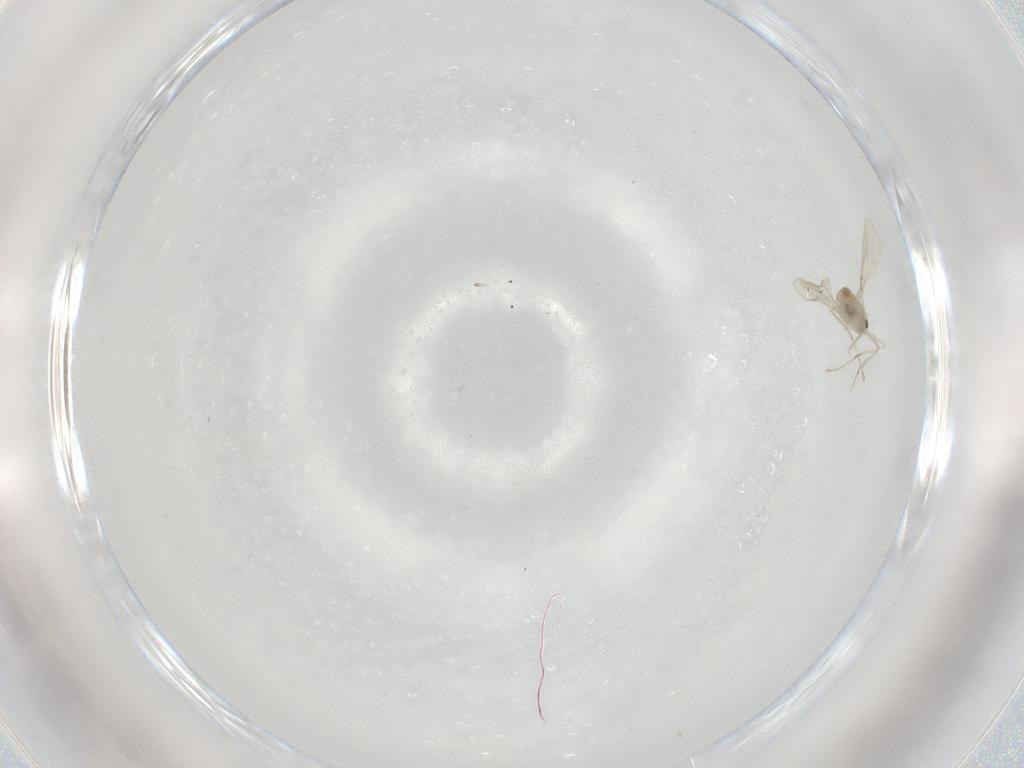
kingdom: Animalia
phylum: Arthropoda
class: Insecta
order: Diptera
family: Cecidomyiidae
